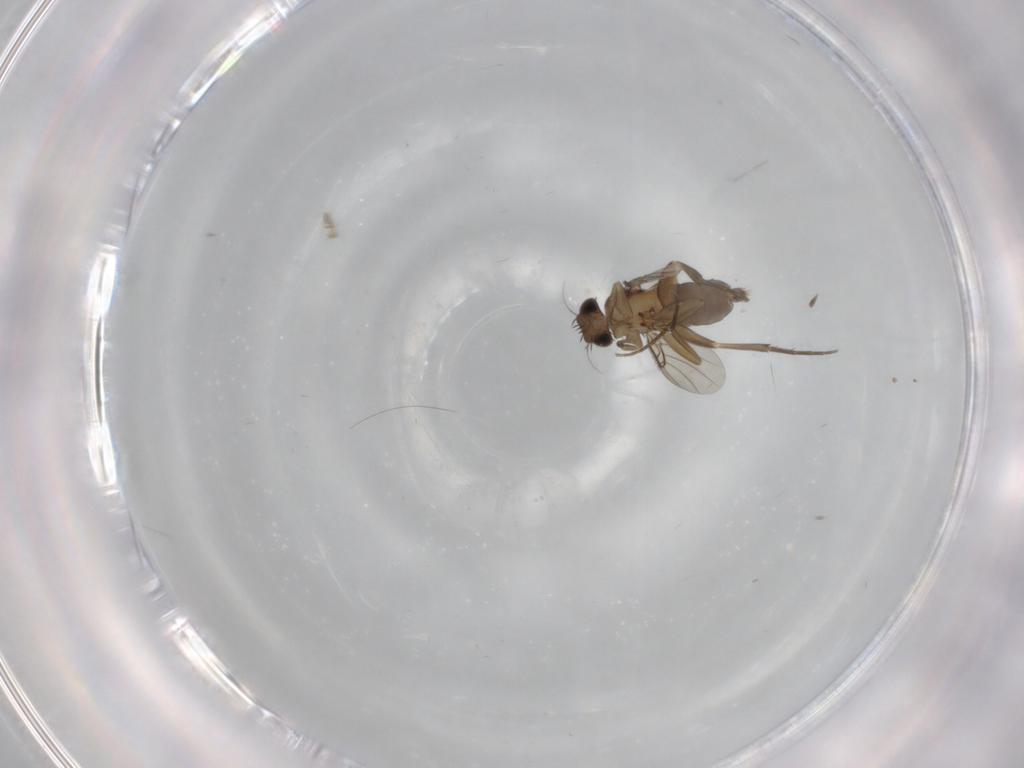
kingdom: Animalia
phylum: Arthropoda
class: Insecta
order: Diptera
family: Phoridae
